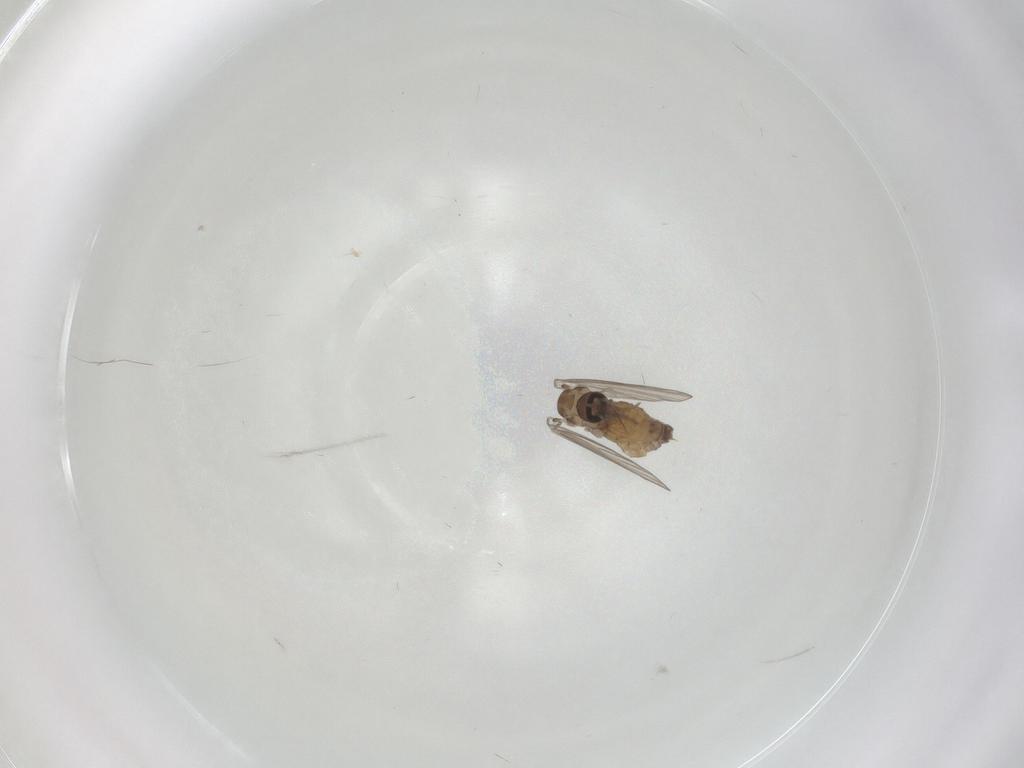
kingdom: Animalia
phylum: Arthropoda
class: Insecta
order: Diptera
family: Psychodidae
